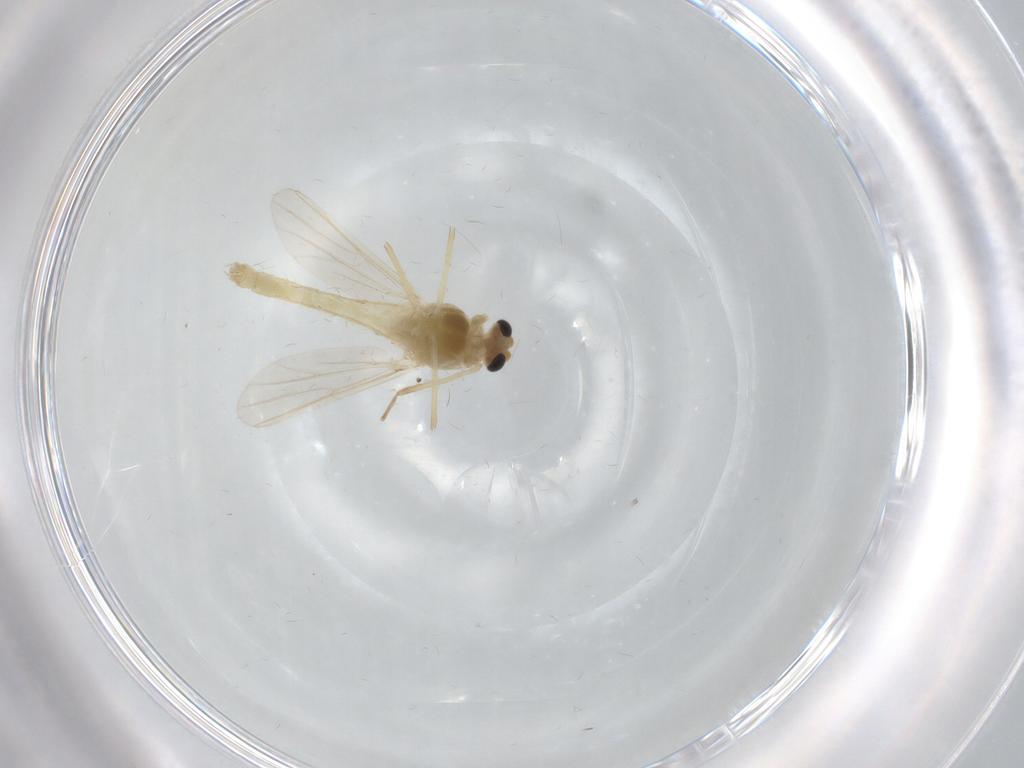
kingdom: Animalia
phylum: Arthropoda
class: Insecta
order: Diptera
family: Chironomidae
